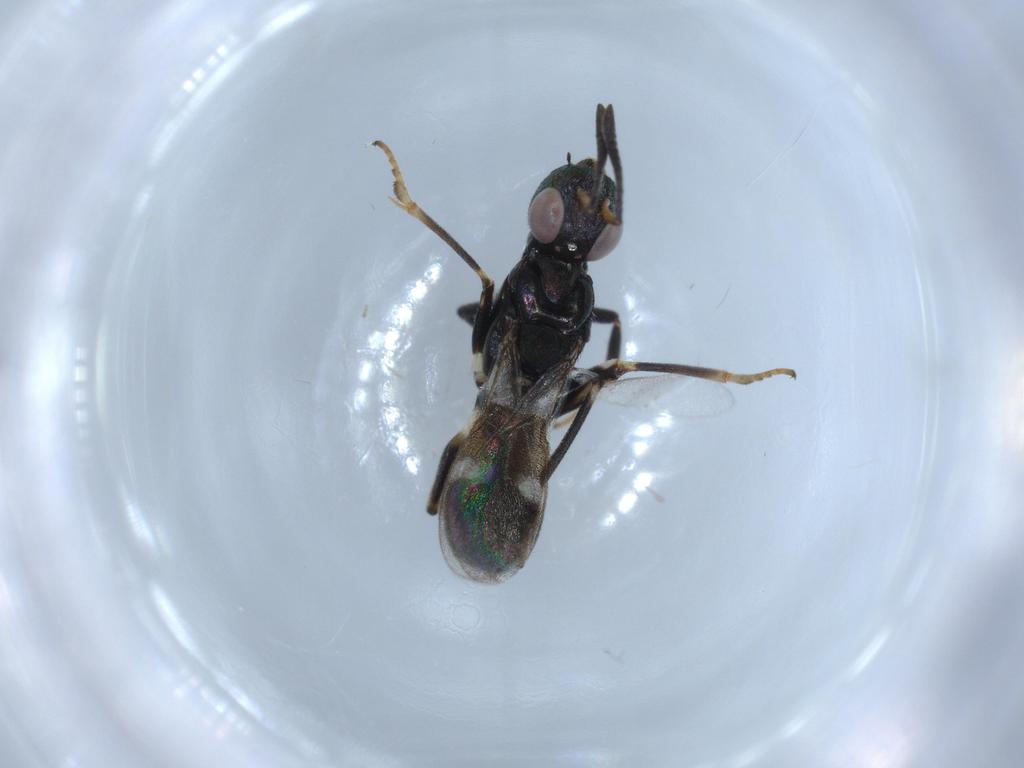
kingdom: Animalia
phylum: Arthropoda
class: Insecta
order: Hymenoptera
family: Eupelmidae
